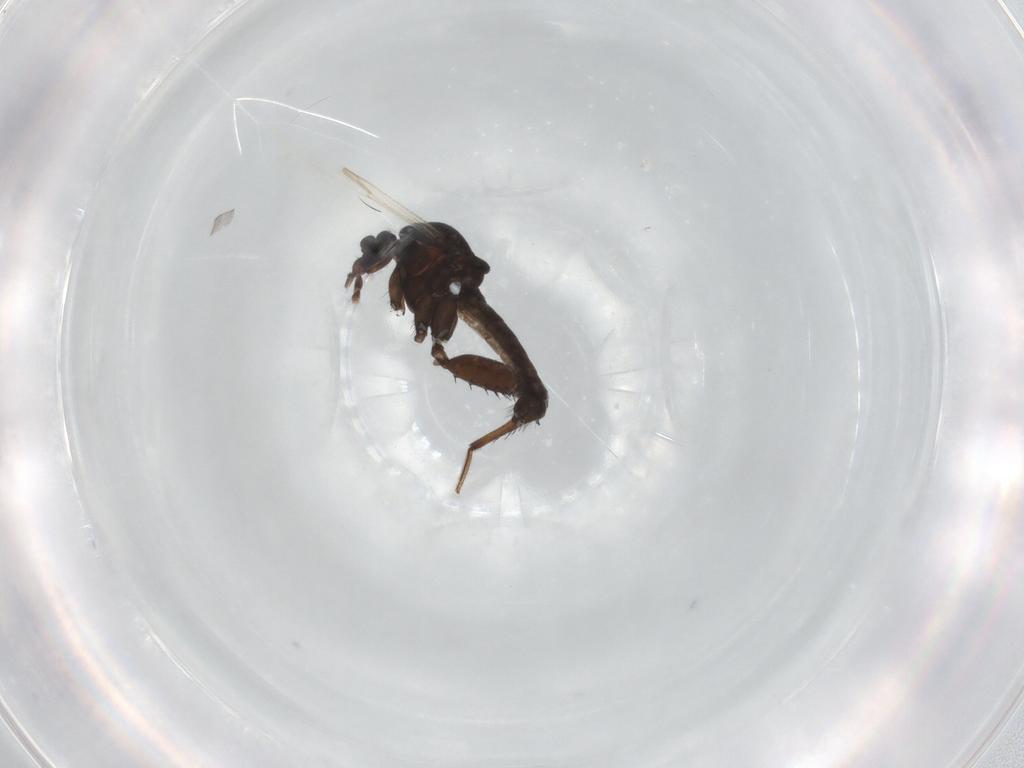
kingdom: Animalia
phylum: Arthropoda
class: Insecta
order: Diptera
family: Ceratopogonidae
